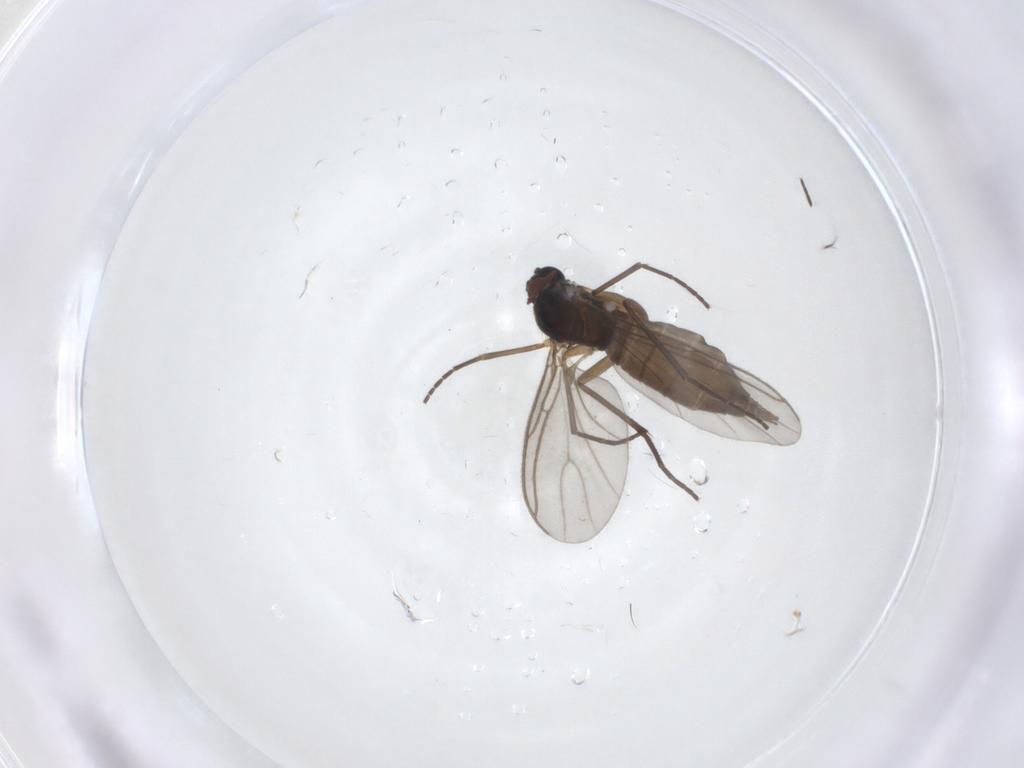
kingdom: Animalia
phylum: Arthropoda
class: Insecta
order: Diptera
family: Sciaridae
